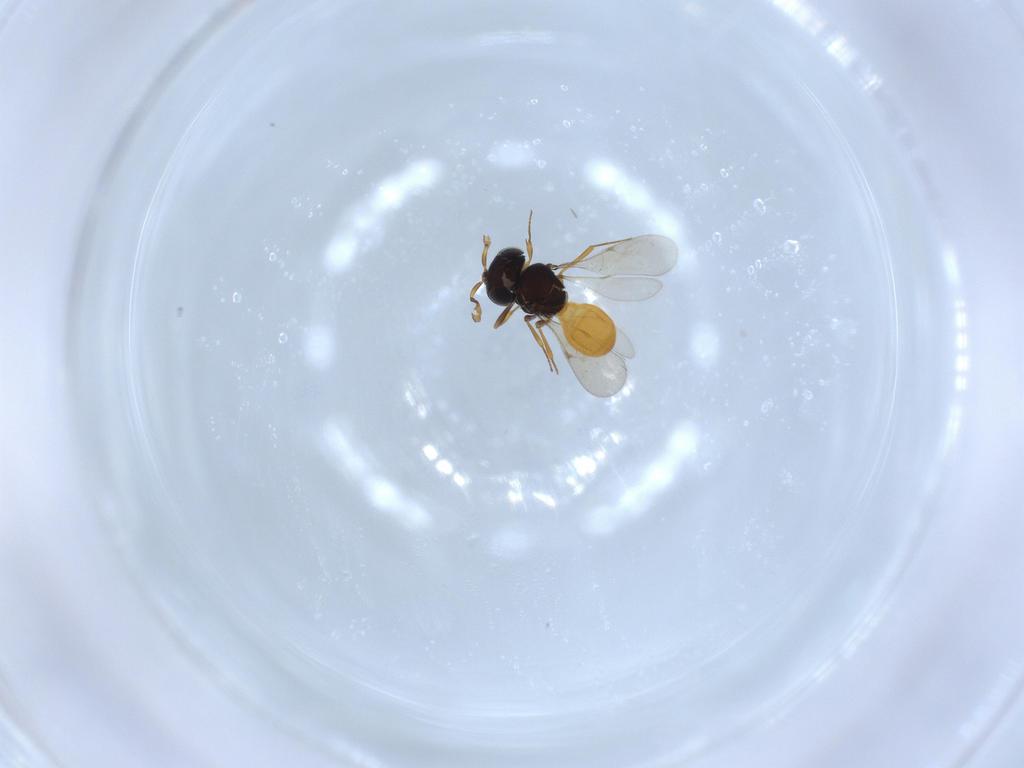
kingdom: Animalia
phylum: Arthropoda
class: Insecta
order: Hymenoptera
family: Scelionidae
